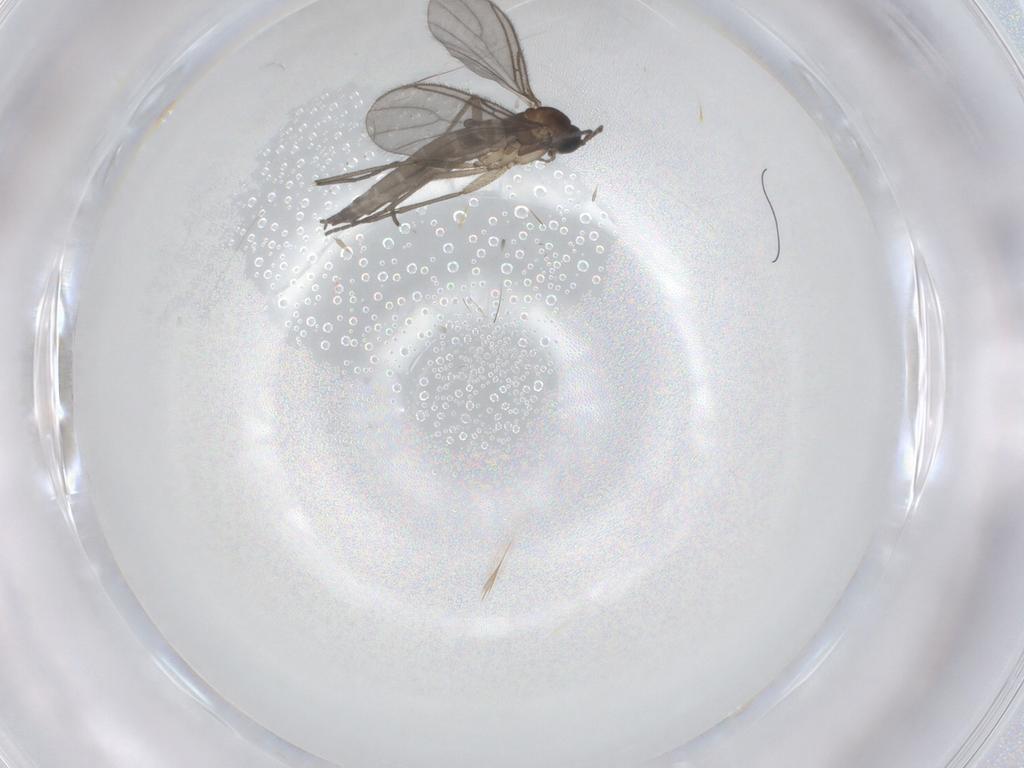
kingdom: Animalia
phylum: Arthropoda
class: Insecta
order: Diptera
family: Sciaridae
